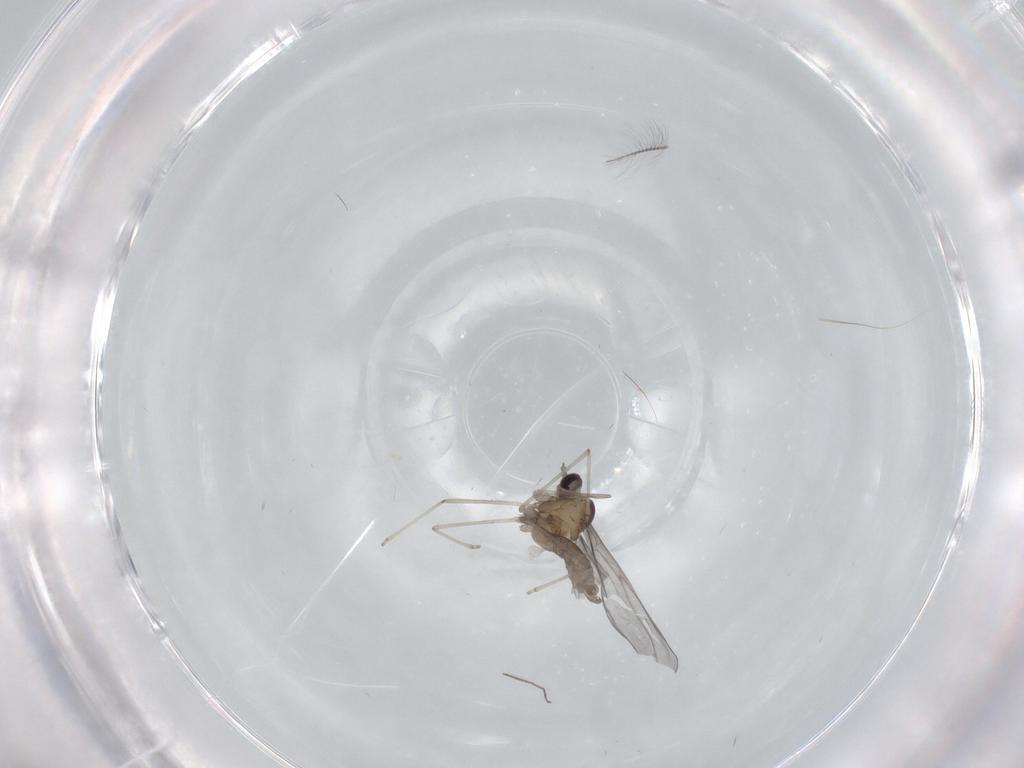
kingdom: Animalia
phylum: Arthropoda
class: Insecta
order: Diptera
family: Cecidomyiidae
